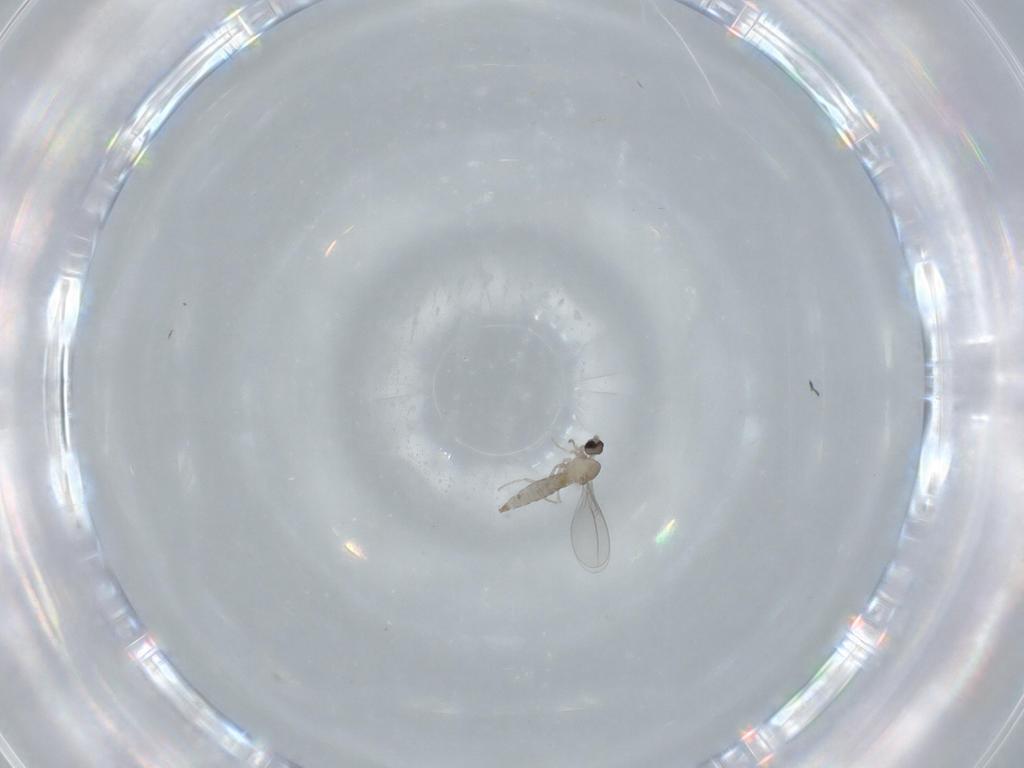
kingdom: Animalia
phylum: Arthropoda
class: Insecta
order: Diptera
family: Cecidomyiidae
